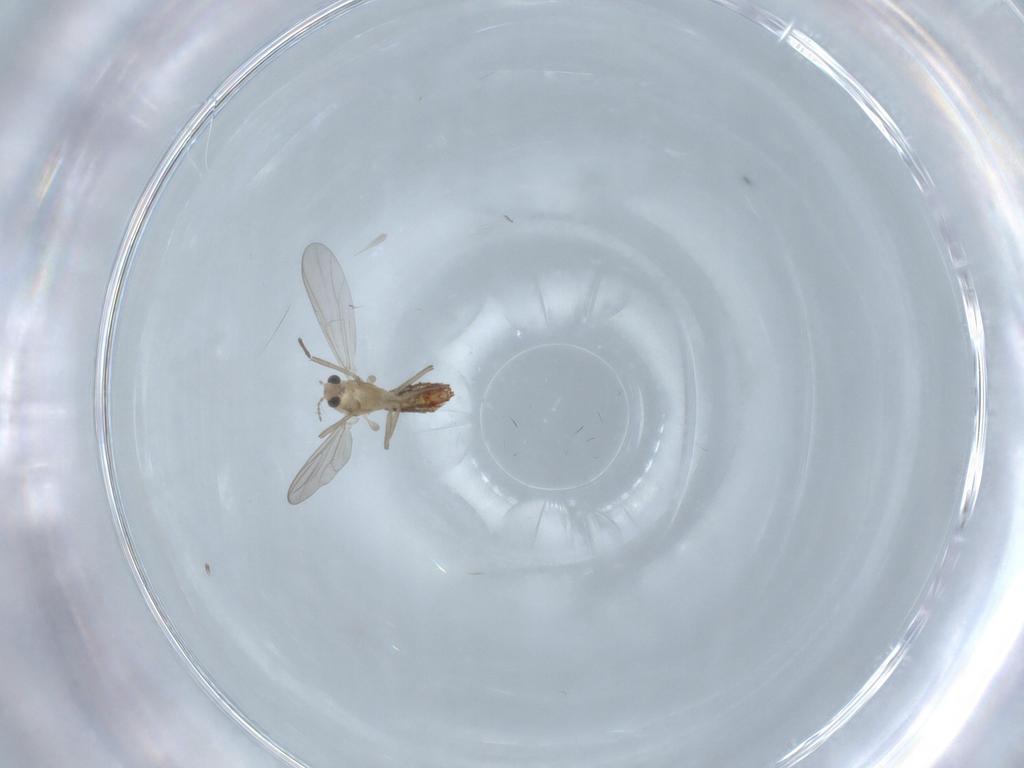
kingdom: Animalia
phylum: Arthropoda
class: Insecta
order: Diptera
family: Chironomidae
